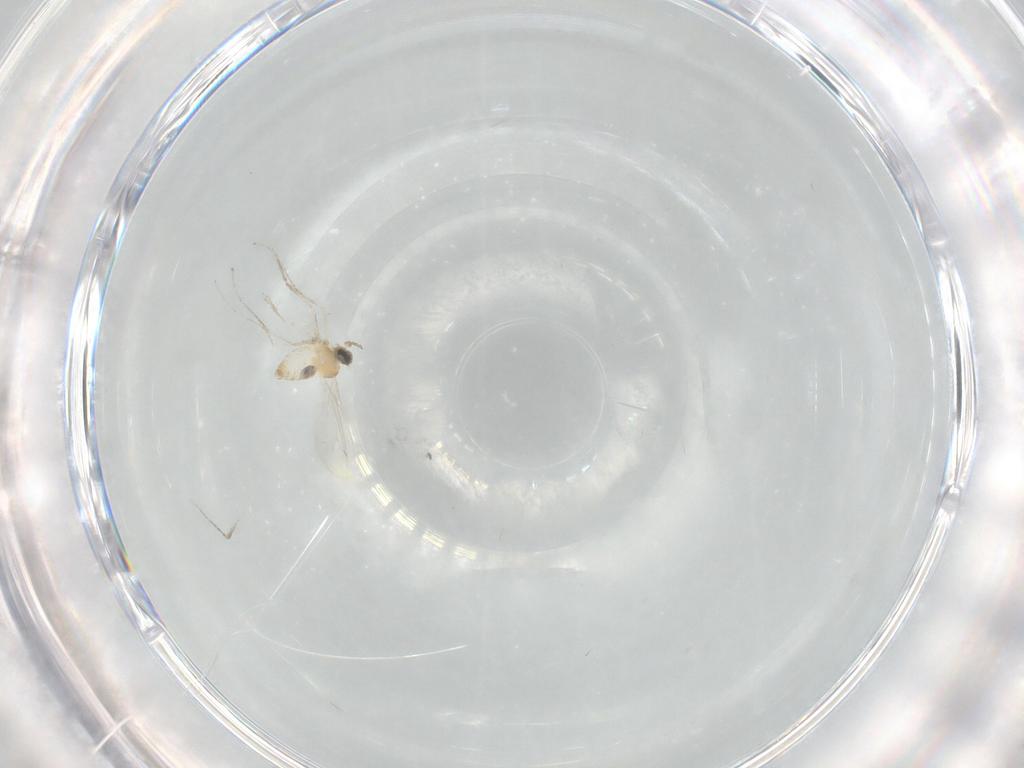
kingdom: Animalia
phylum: Arthropoda
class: Insecta
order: Diptera
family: Cecidomyiidae
